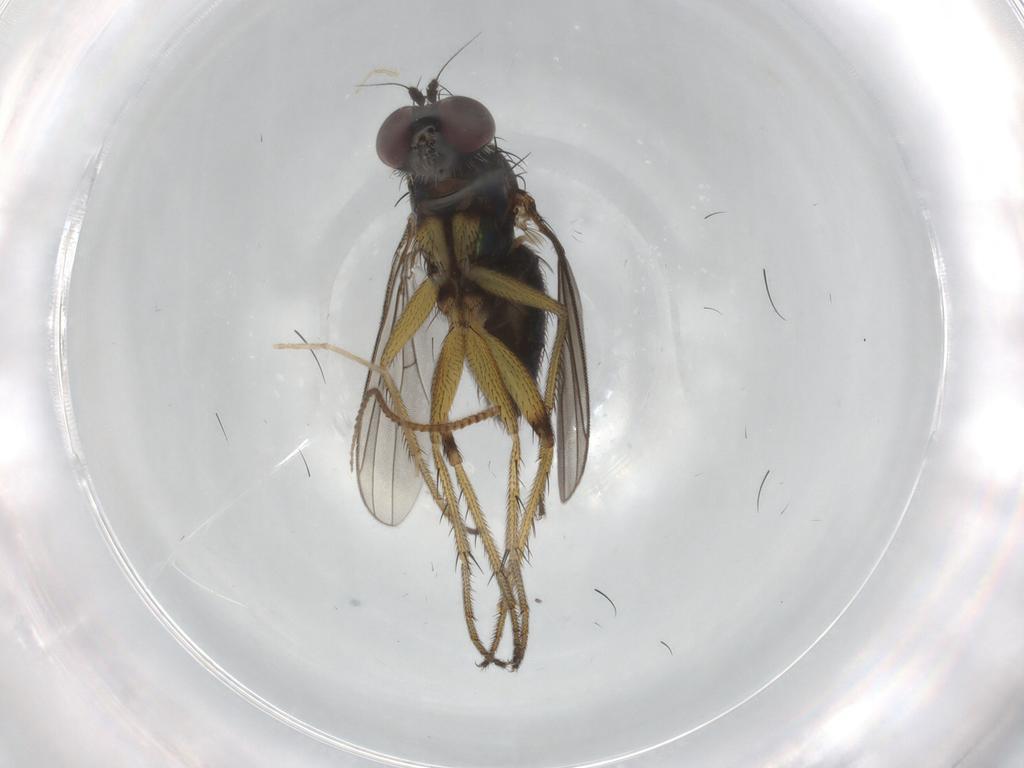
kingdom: Animalia
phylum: Arthropoda
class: Insecta
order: Diptera
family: Dolichopodidae
